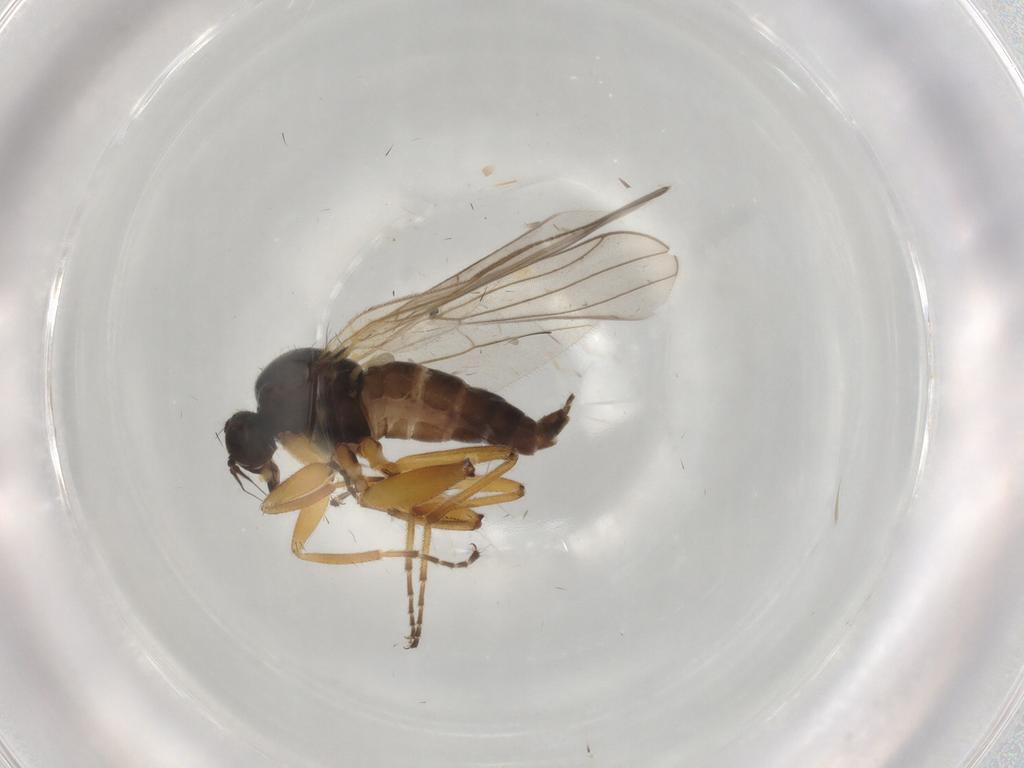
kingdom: Animalia
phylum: Arthropoda
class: Insecta
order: Diptera
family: Hybotidae
